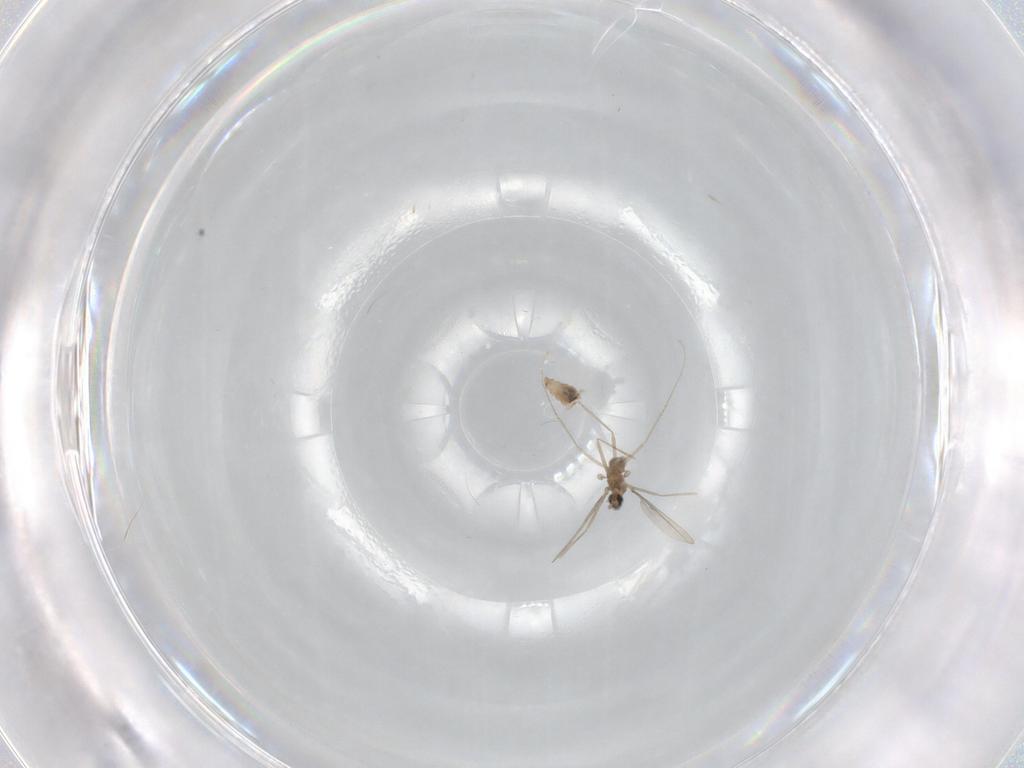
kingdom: Animalia
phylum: Arthropoda
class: Insecta
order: Diptera
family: Cecidomyiidae
